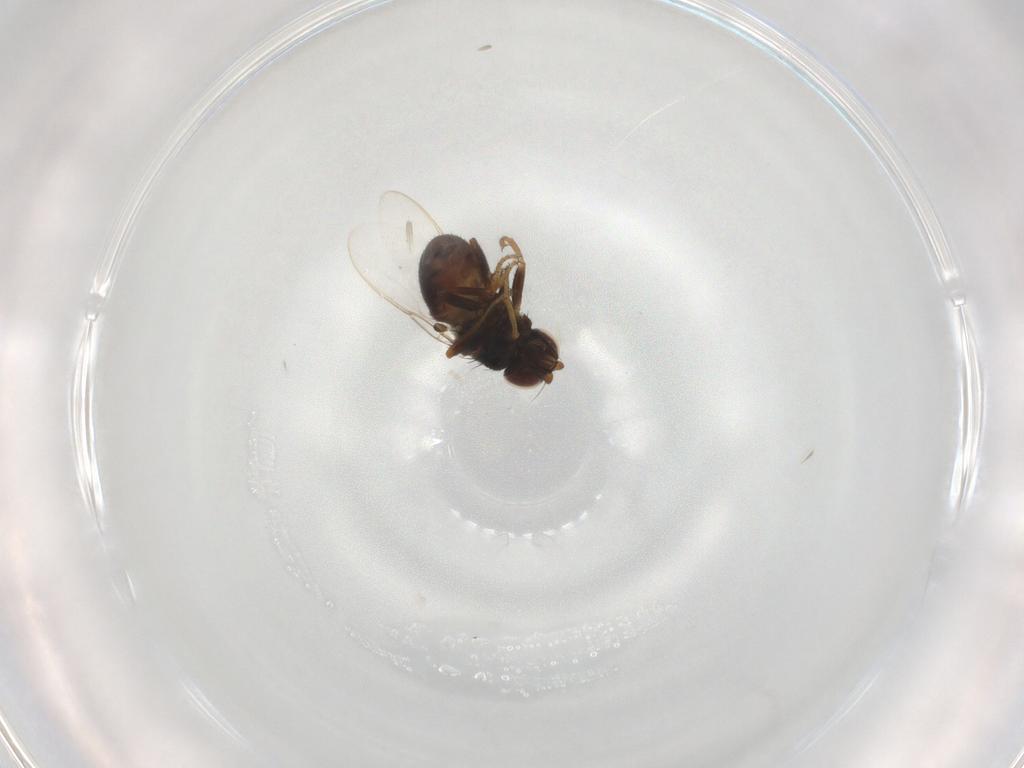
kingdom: Animalia
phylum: Arthropoda
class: Insecta
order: Diptera
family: Chloropidae
